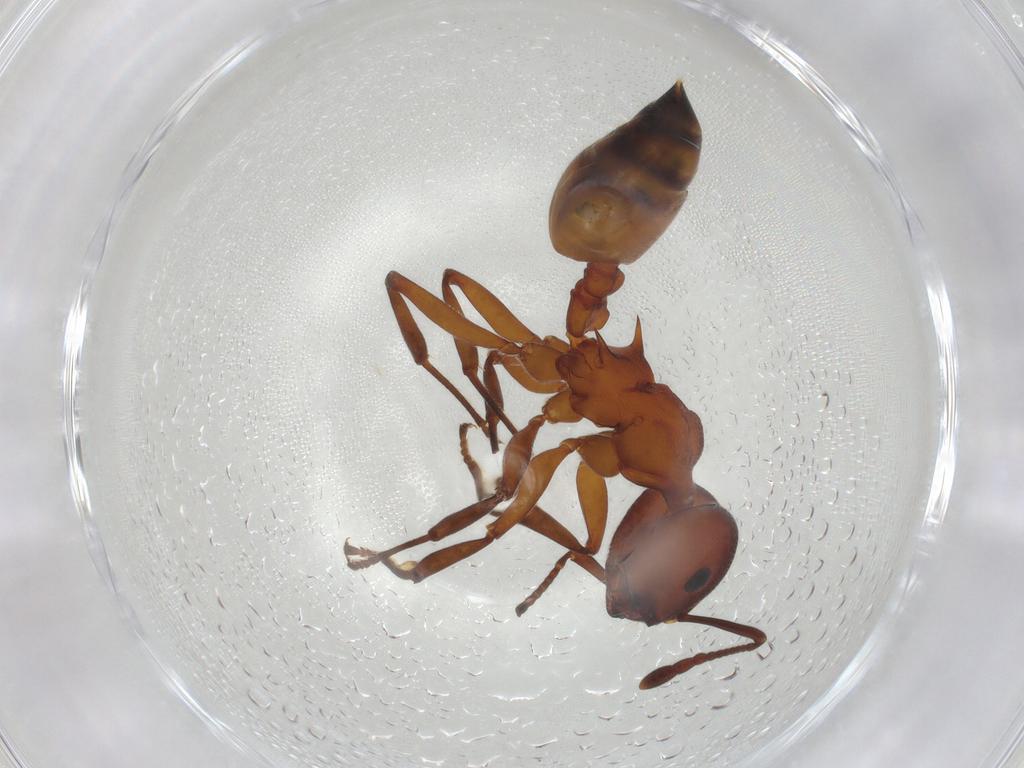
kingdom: Animalia
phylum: Arthropoda
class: Insecta
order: Hymenoptera
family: Formicidae
